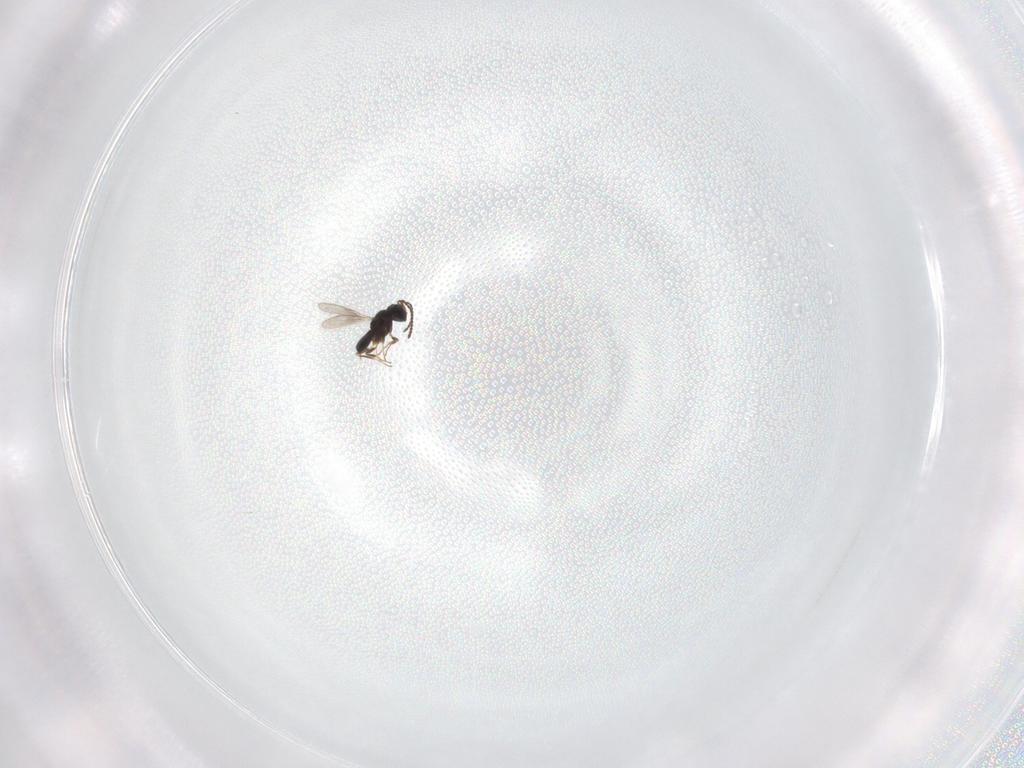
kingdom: Animalia
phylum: Arthropoda
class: Insecta
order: Hymenoptera
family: Scelionidae
